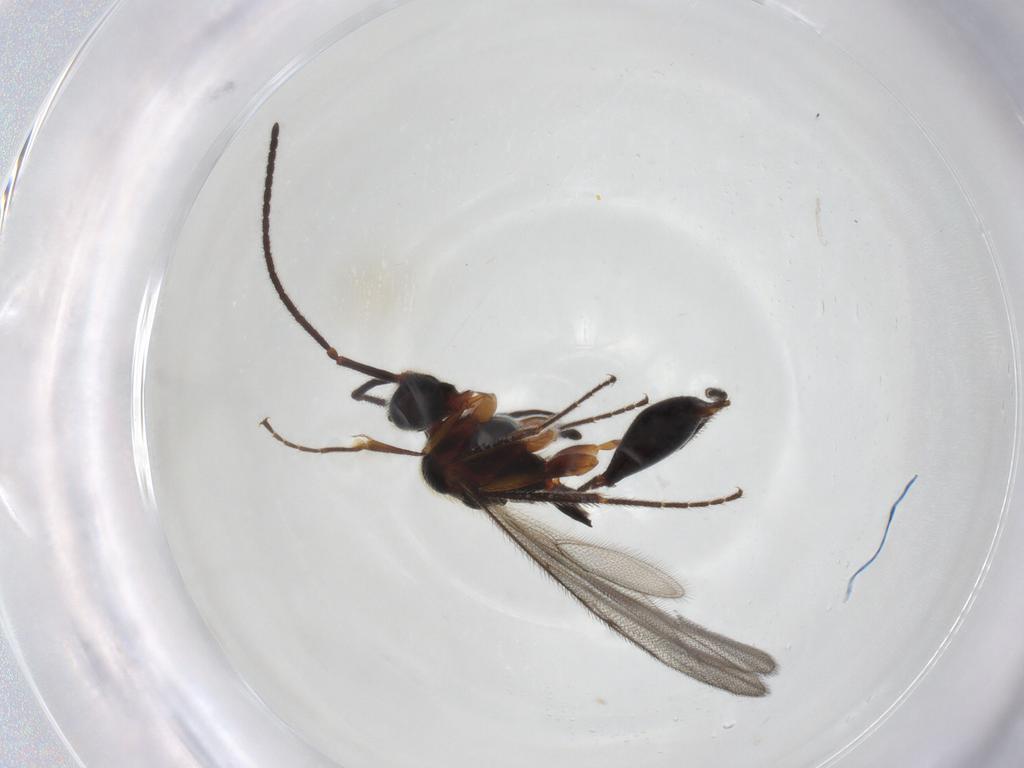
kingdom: Animalia
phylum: Arthropoda
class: Insecta
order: Hymenoptera
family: Diapriidae
